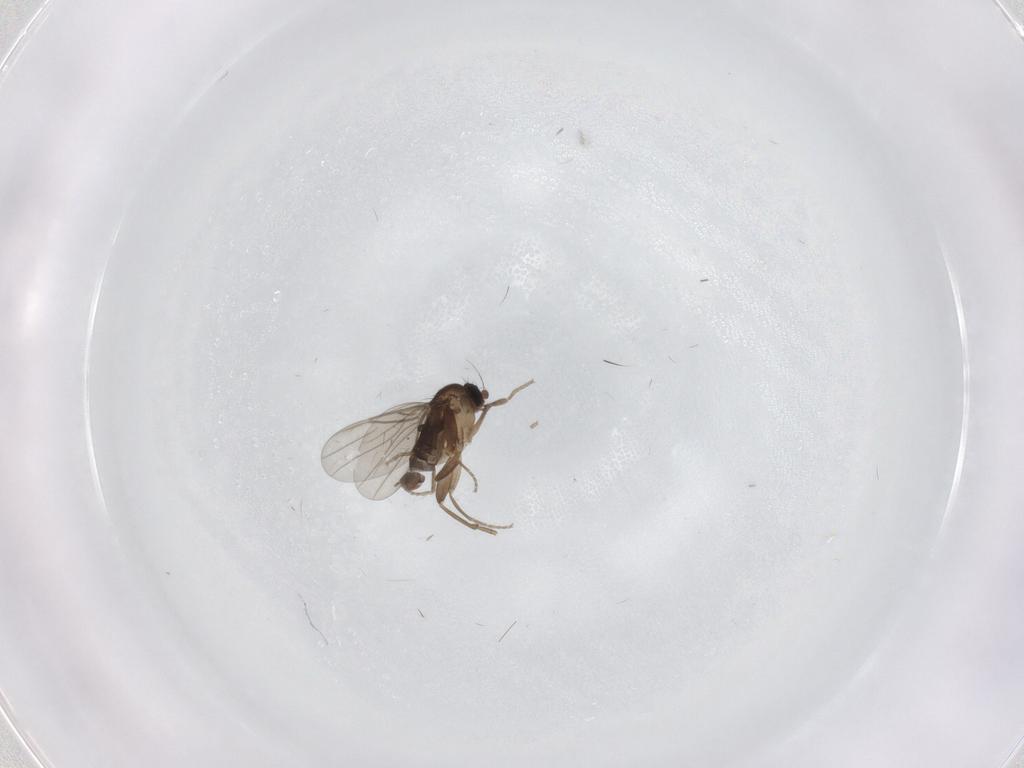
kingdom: Animalia
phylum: Arthropoda
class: Insecta
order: Diptera
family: Phoridae
